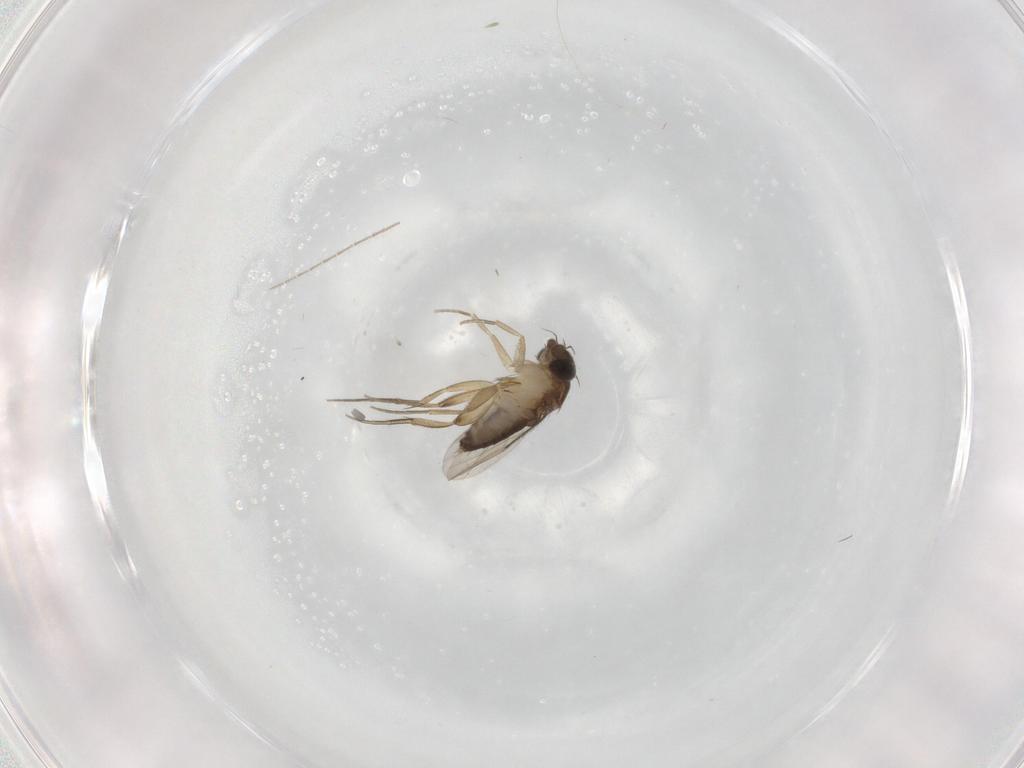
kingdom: Animalia
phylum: Arthropoda
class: Insecta
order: Diptera
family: Phoridae
